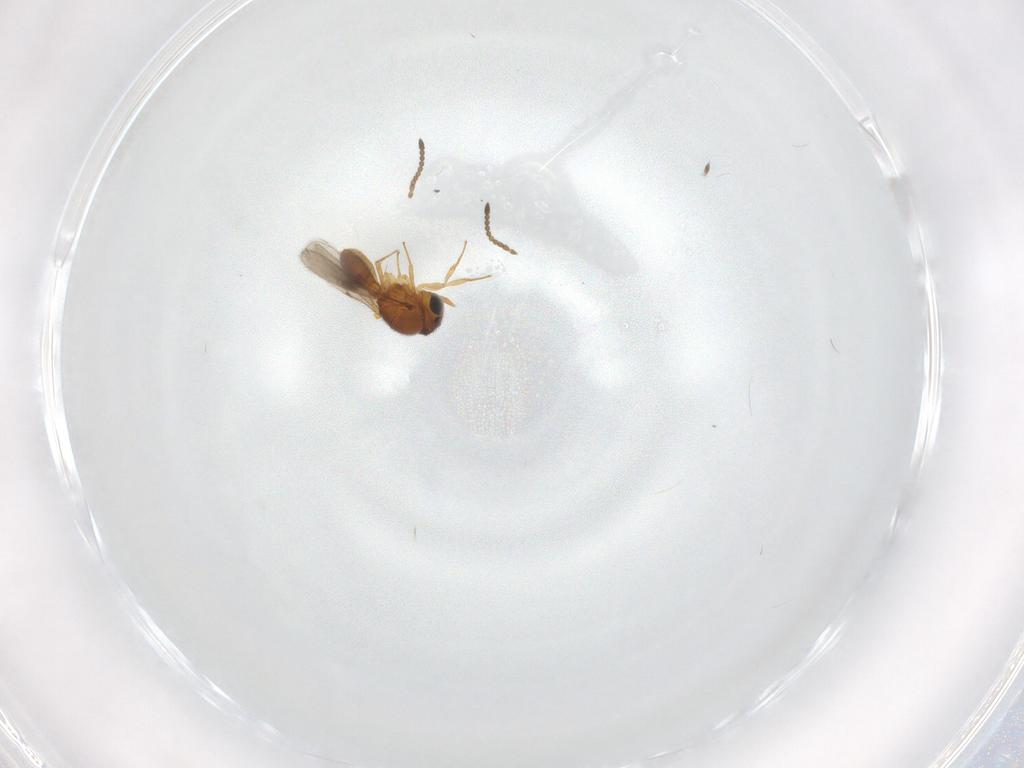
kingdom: Animalia
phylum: Arthropoda
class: Insecta
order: Hymenoptera
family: Scelionidae
